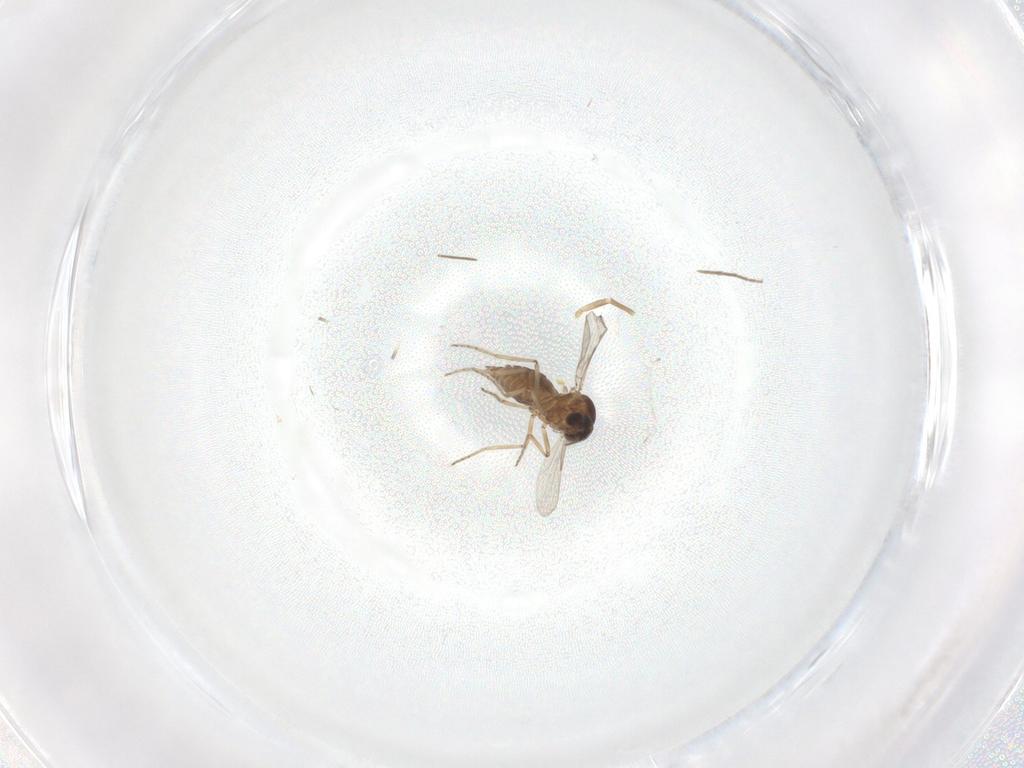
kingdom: Animalia
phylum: Arthropoda
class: Insecta
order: Diptera
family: Ceratopogonidae
